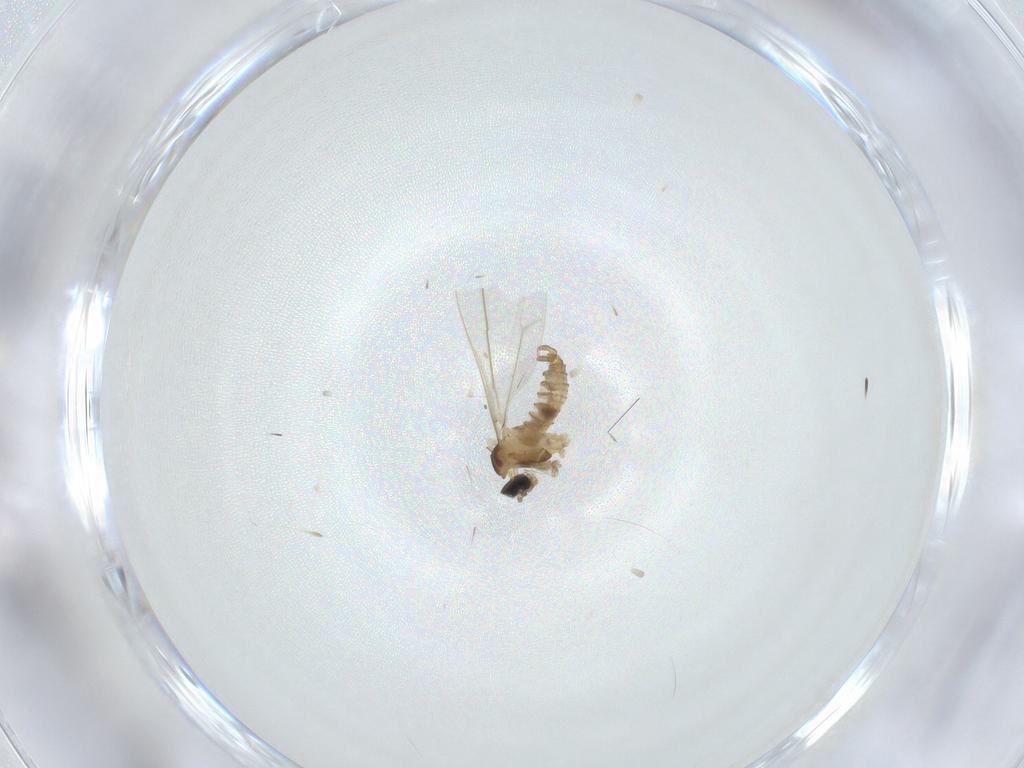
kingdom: Animalia
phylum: Arthropoda
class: Insecta
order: Diptera
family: Cecidomyiidae
